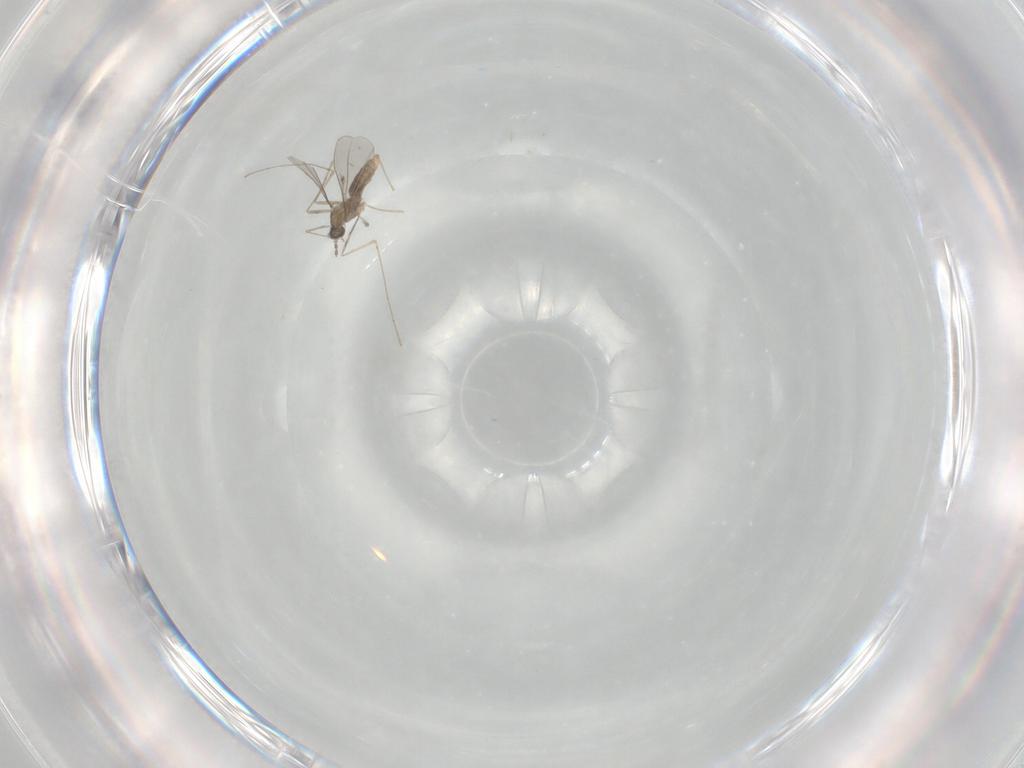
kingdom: Animalia
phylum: Arthropoda
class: Insecta
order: Diptera
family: Cecidomyiidae
